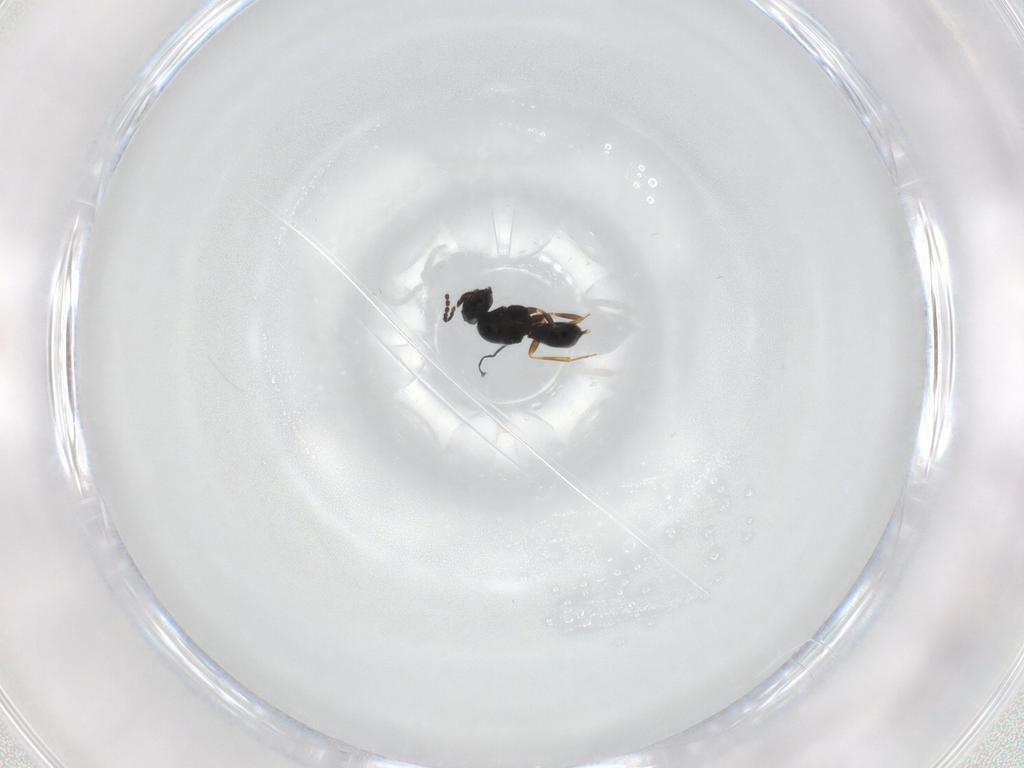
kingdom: Animalia
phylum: Arthropoda
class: Insecta
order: Hymenoptera
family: Scelionidae
